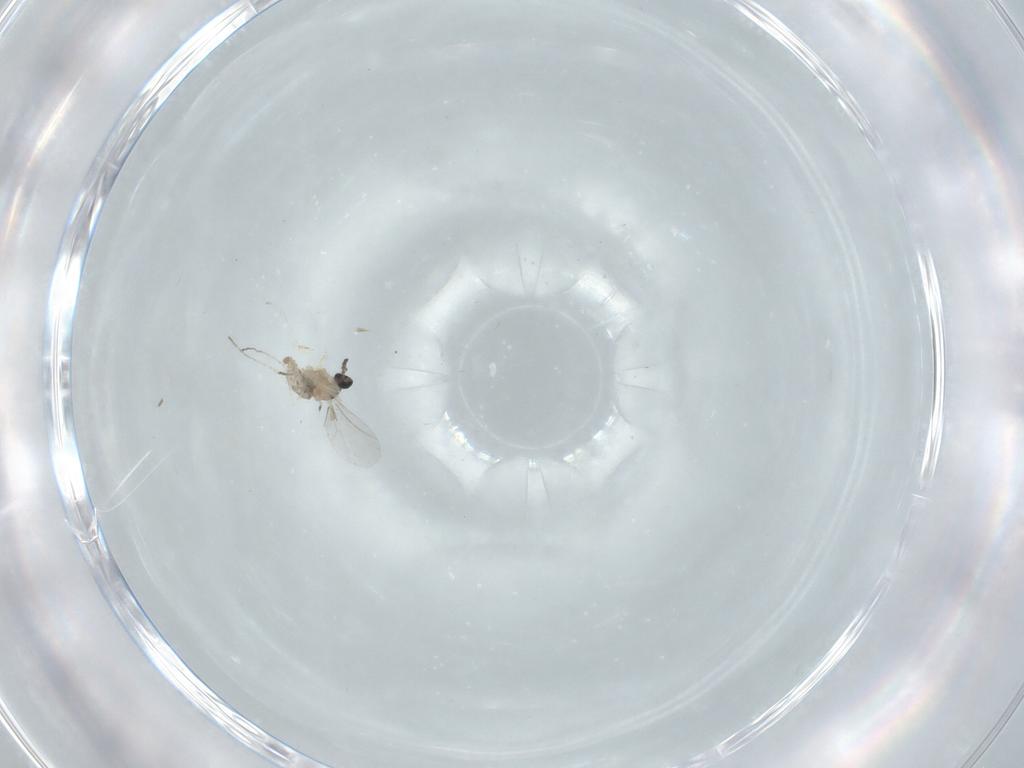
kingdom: Animalia
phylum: Arthropoda
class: Insecta
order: Diptera
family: Cecidomyiidae
